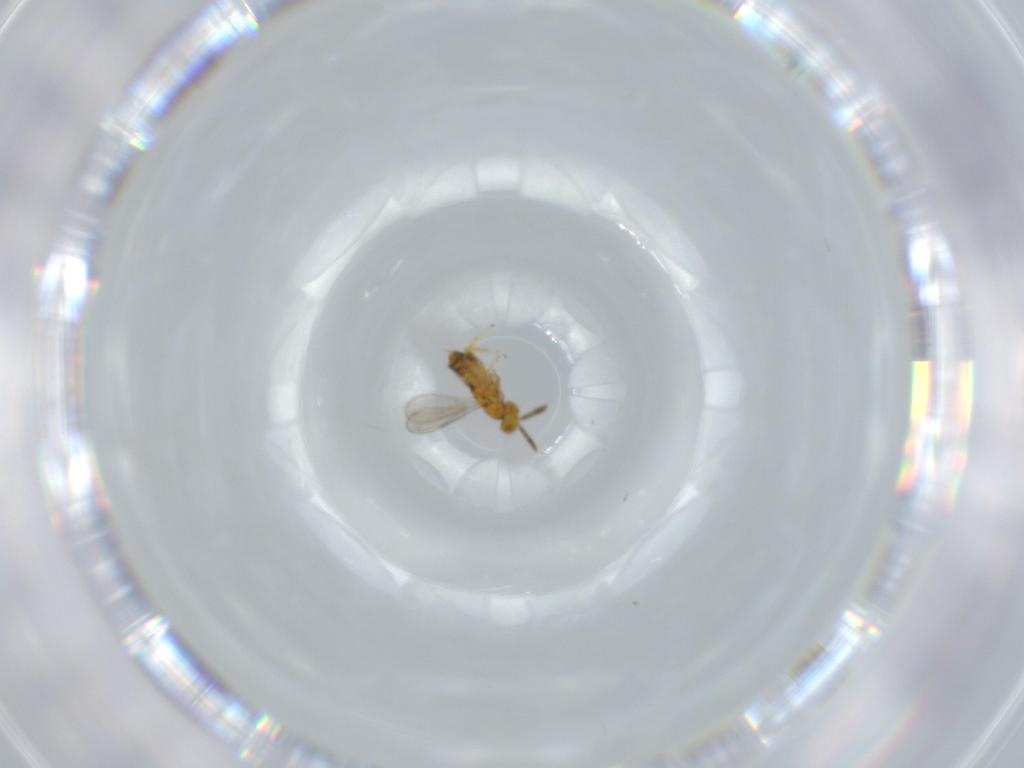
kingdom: Animalia
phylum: Arthropoda
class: Insecta
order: Hymenoptera
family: Aphelinidae
